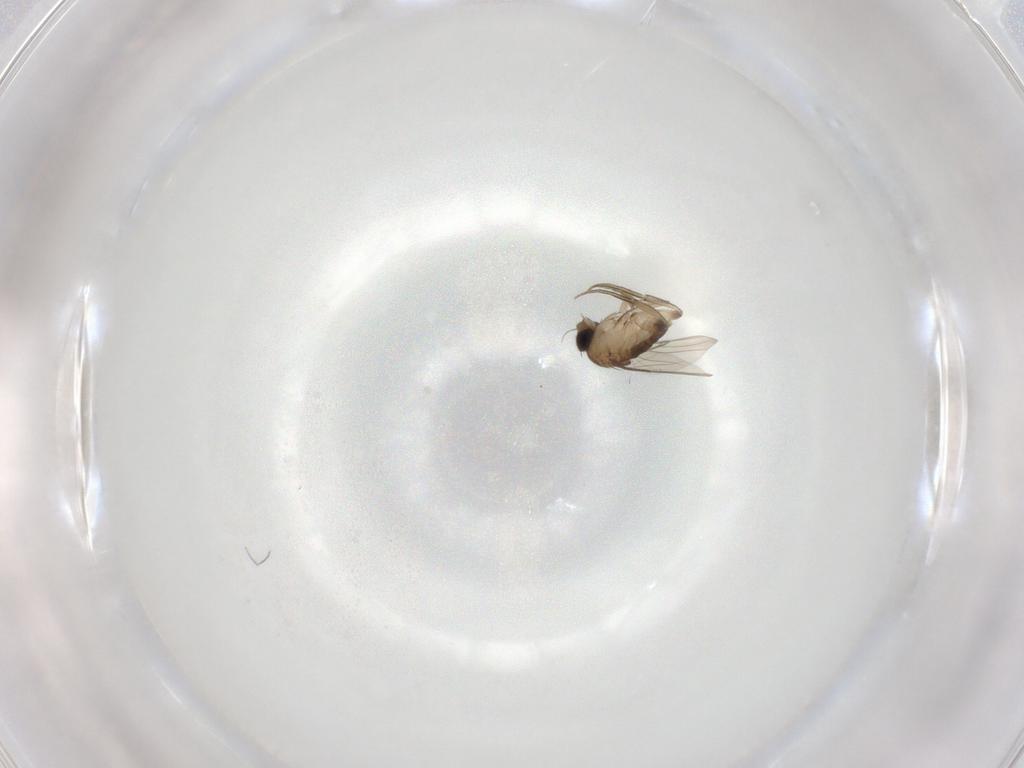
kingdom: Animalia
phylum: Arthropoda
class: Insecta
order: Diptera
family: Phoridae
